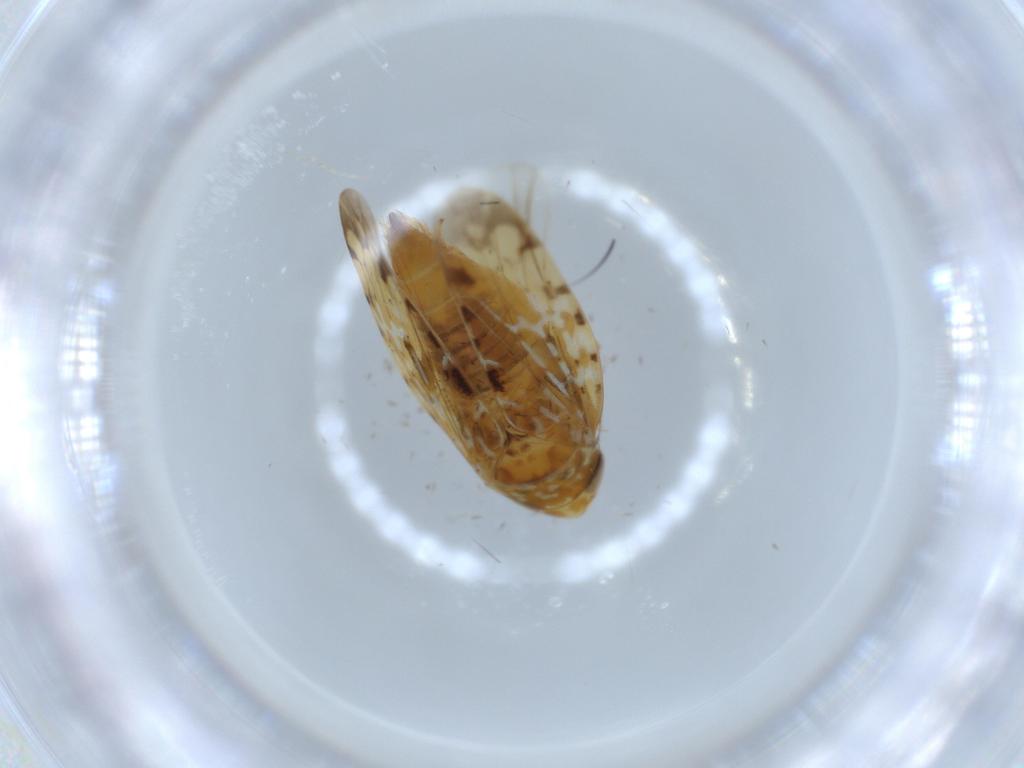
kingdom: Animalia
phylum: Arthropoda
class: Insecta
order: Hemiptera
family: Cicadellidae
